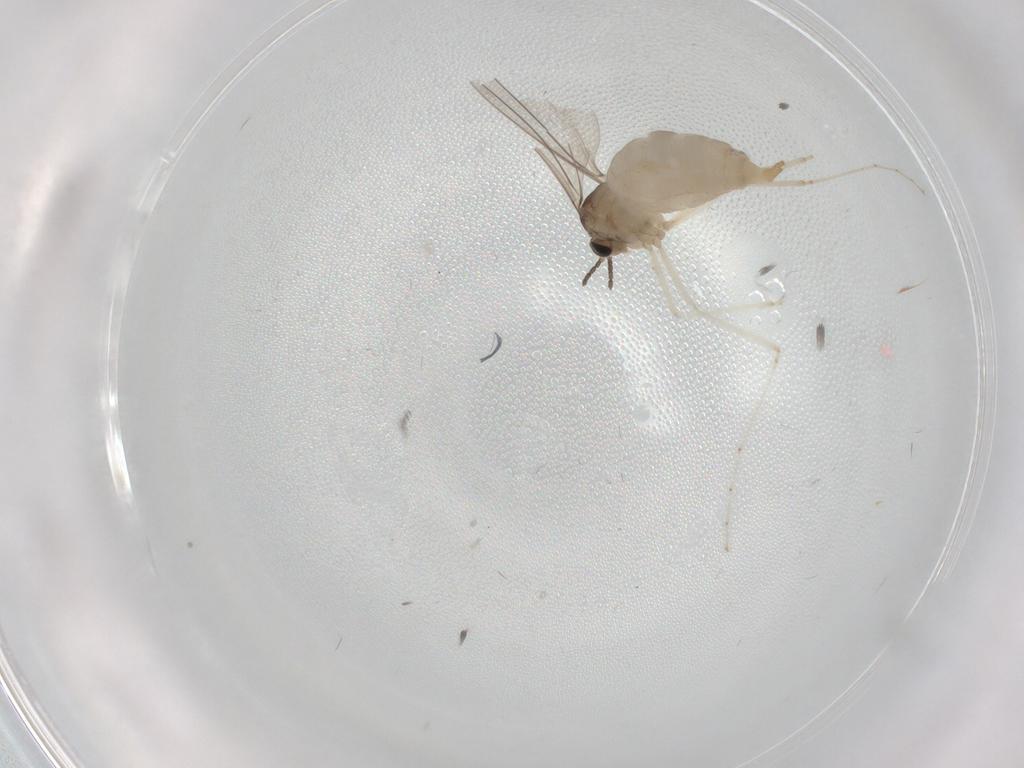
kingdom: Animalia
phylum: Arthropoda
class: Insecta
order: Diptera
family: Cecidomyiidae
